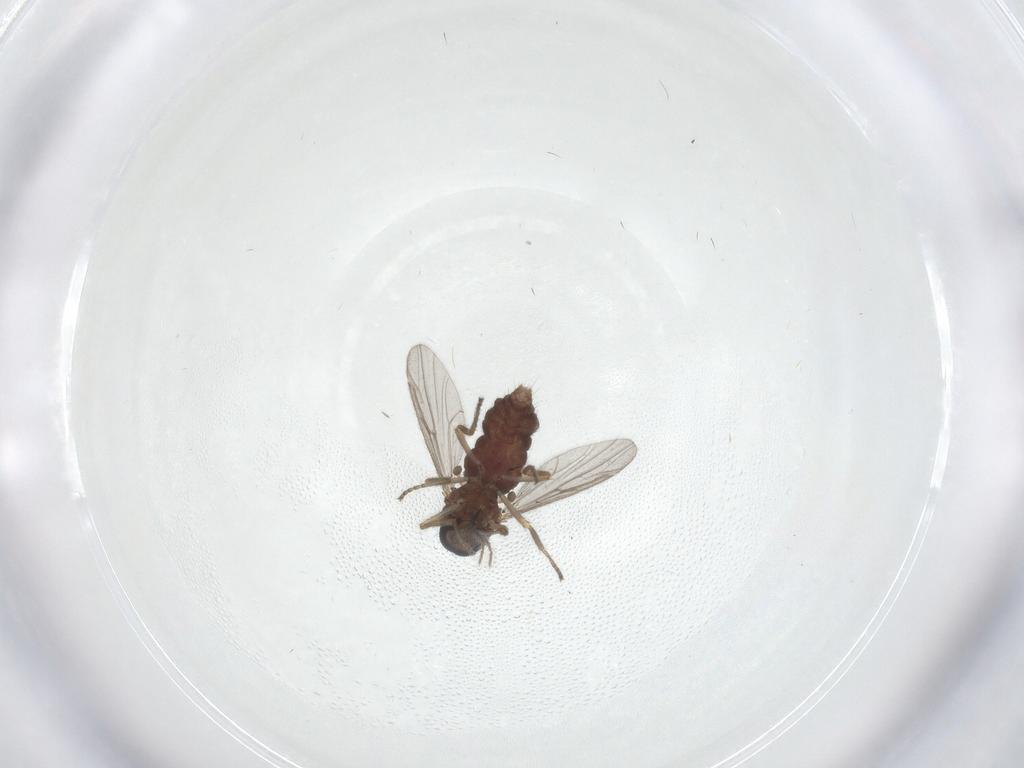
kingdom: Animalia
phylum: Arthropoda
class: Insecta
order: Diptera
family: Ceratopogonidae
